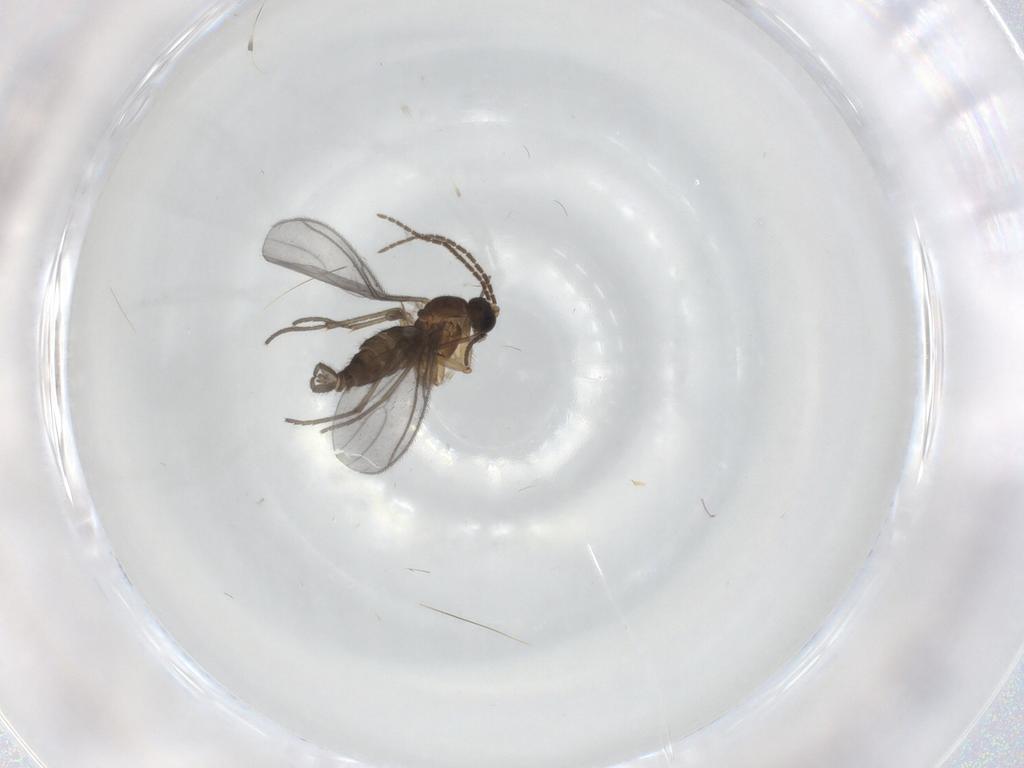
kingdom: Animalia
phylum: Arthropoda
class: Insecta
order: Diptera
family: Sciaridae
